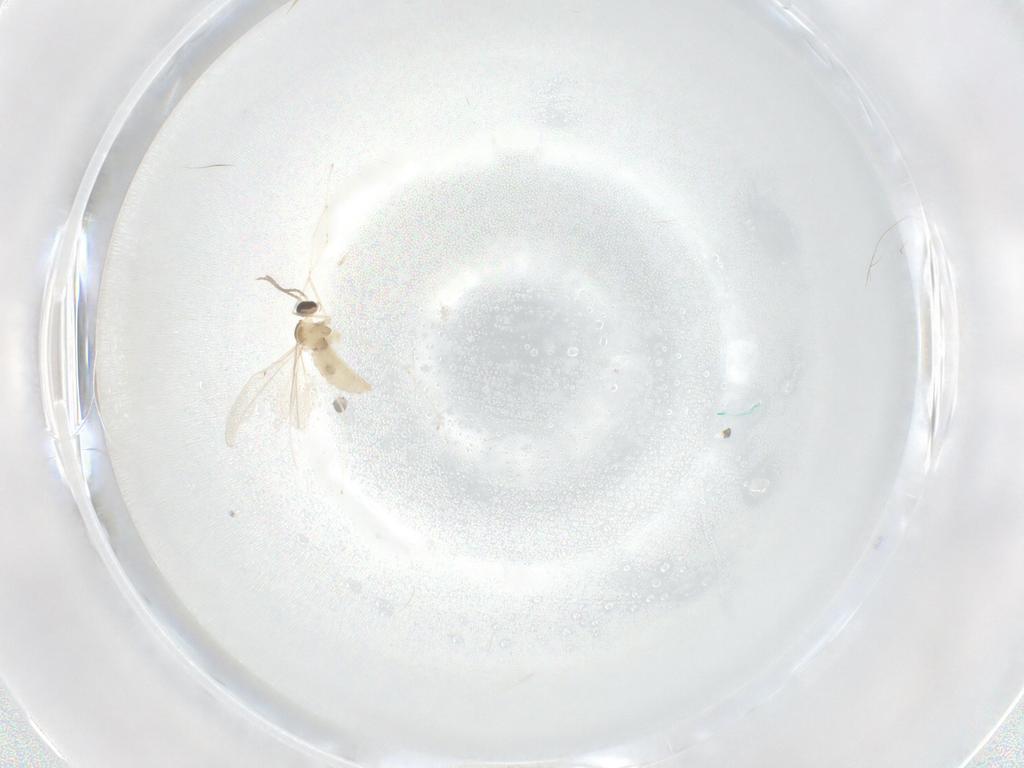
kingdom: Animalia
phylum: Arthropoda
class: Insecta
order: Diptera
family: Cecidomyiidae
